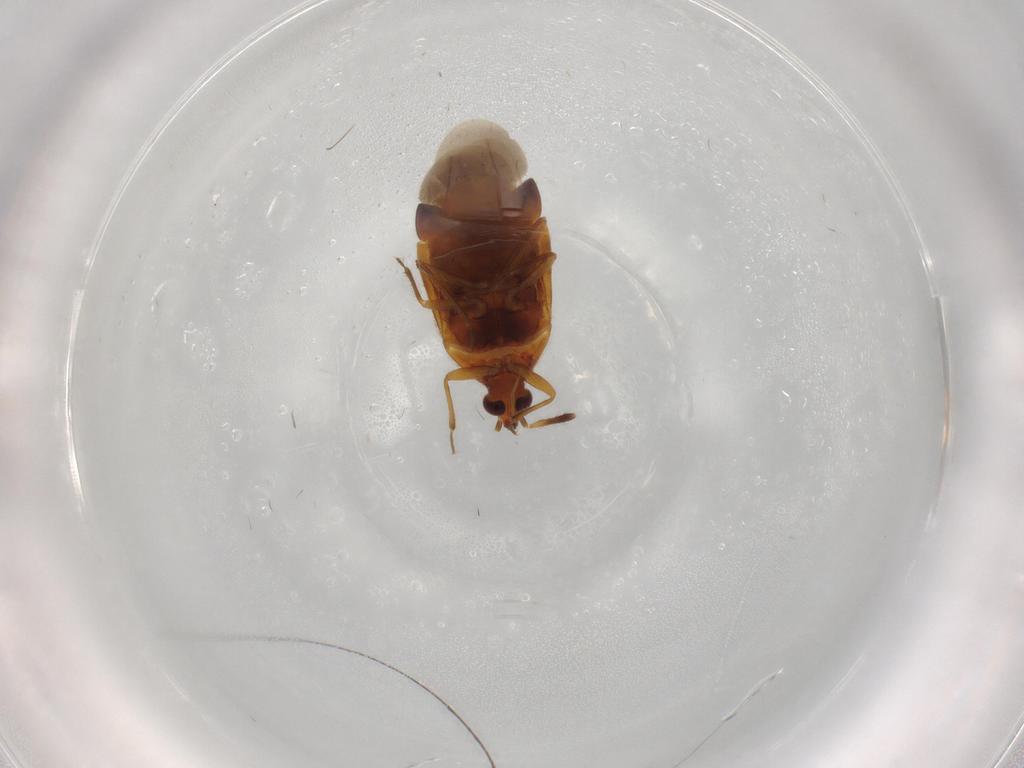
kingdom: Animalia
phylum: Arthropoda
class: Insecta
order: Hemiptera
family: Anthocoridae
